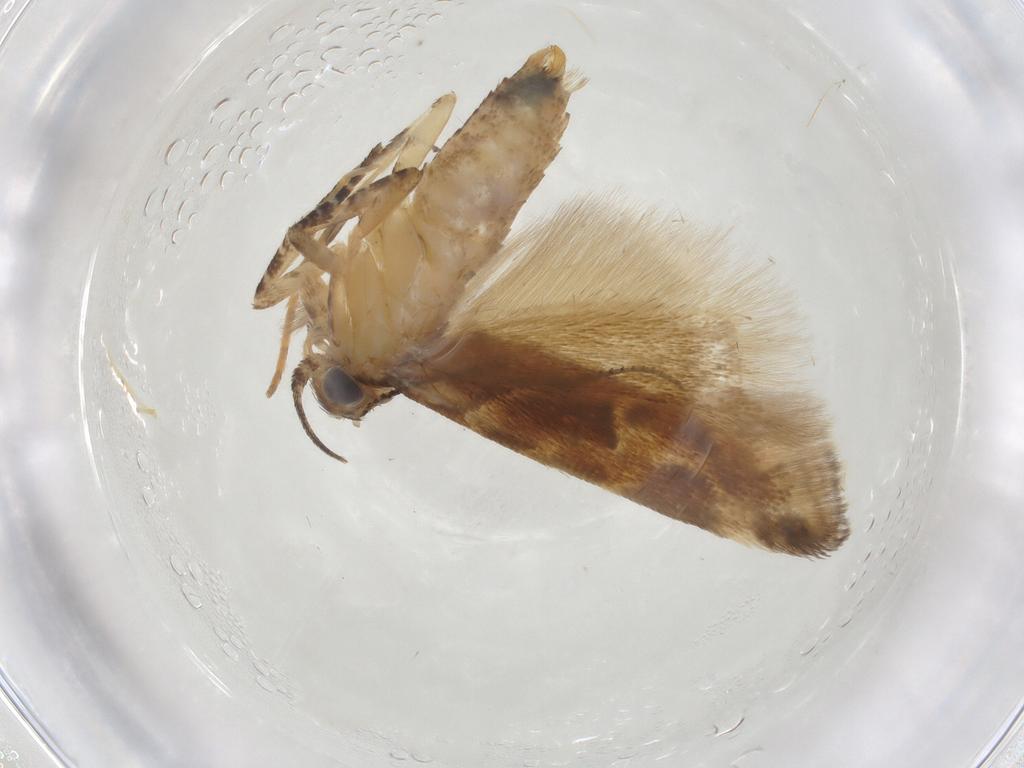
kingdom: Animalia
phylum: Arthropoda
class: Insecta
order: Lepidoptera
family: Gelechiidae
